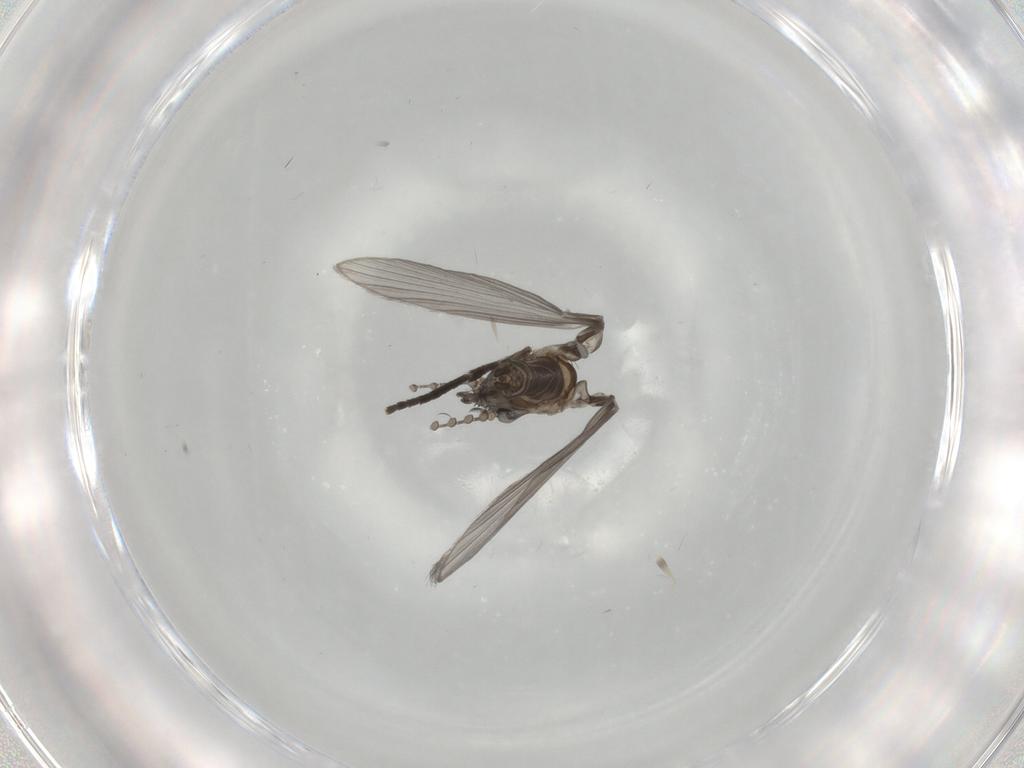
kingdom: Animalia
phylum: Arthropoda
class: Insecta
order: Diptera
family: Psychodidae
